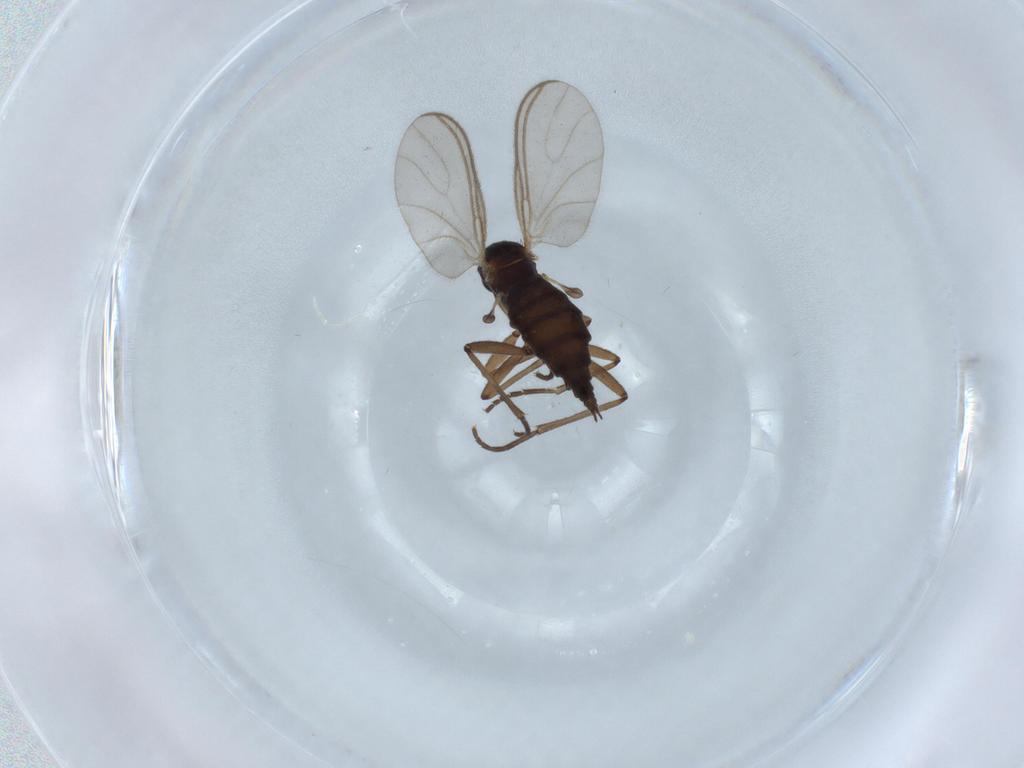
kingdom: Animalia
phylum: Arthropoda
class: Insecta
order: Diptera
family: Sciaridae
